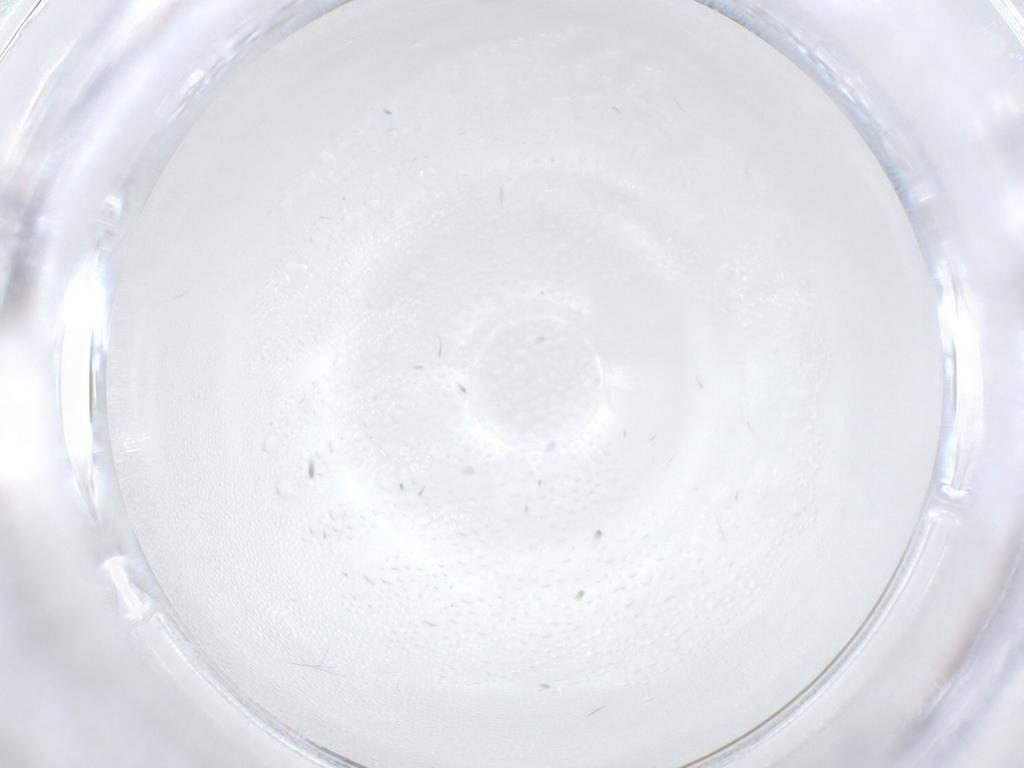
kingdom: Animalia
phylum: Arthropoda
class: Insecta
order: Diptera
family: Ceratopogonidae
